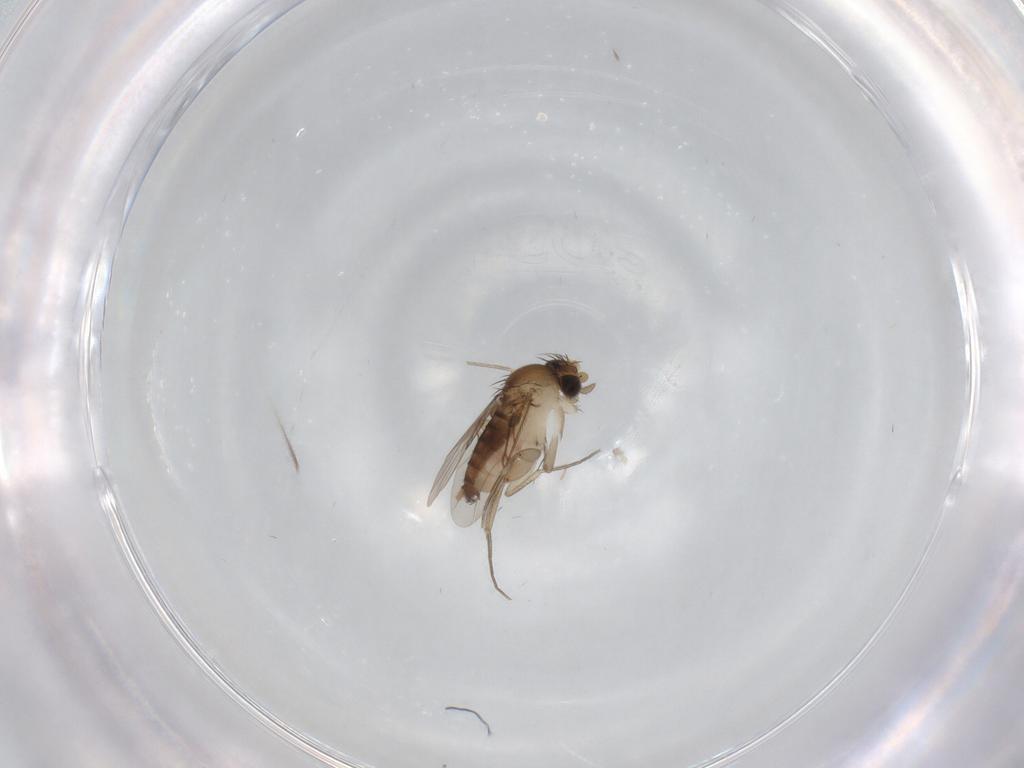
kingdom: Animalia
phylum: Arthropoda
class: Insecta
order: Diptera
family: Phoridae
